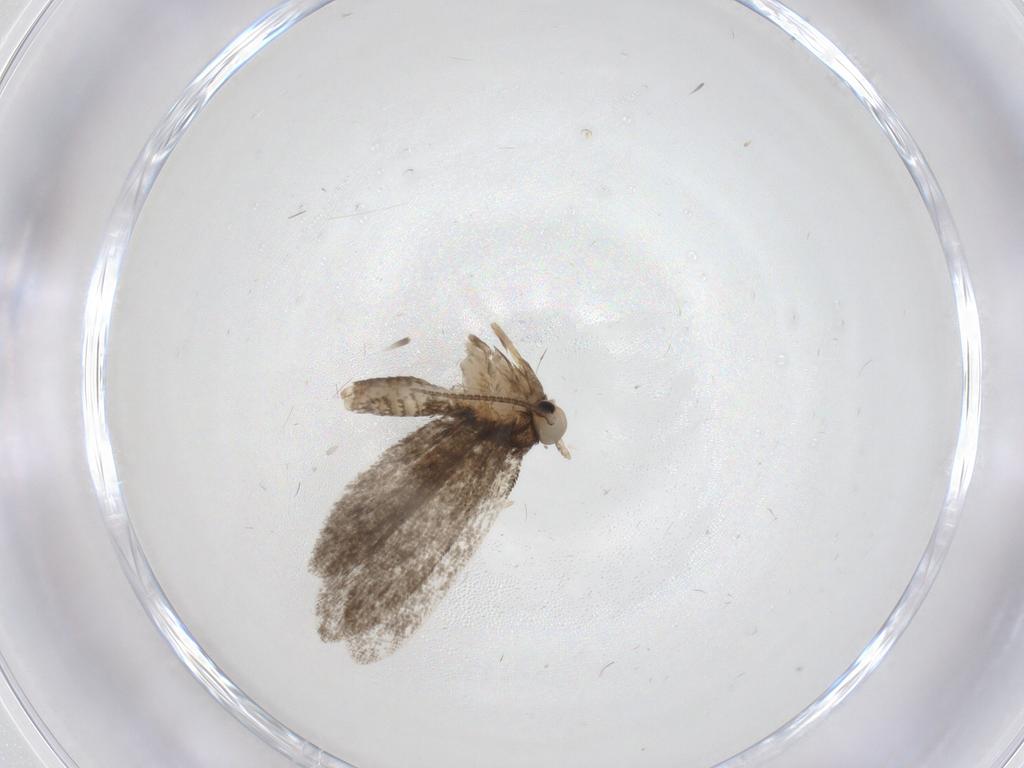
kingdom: Animalia
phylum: Arthropoda
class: Insecta
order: Lepidoptera
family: Psychidae
